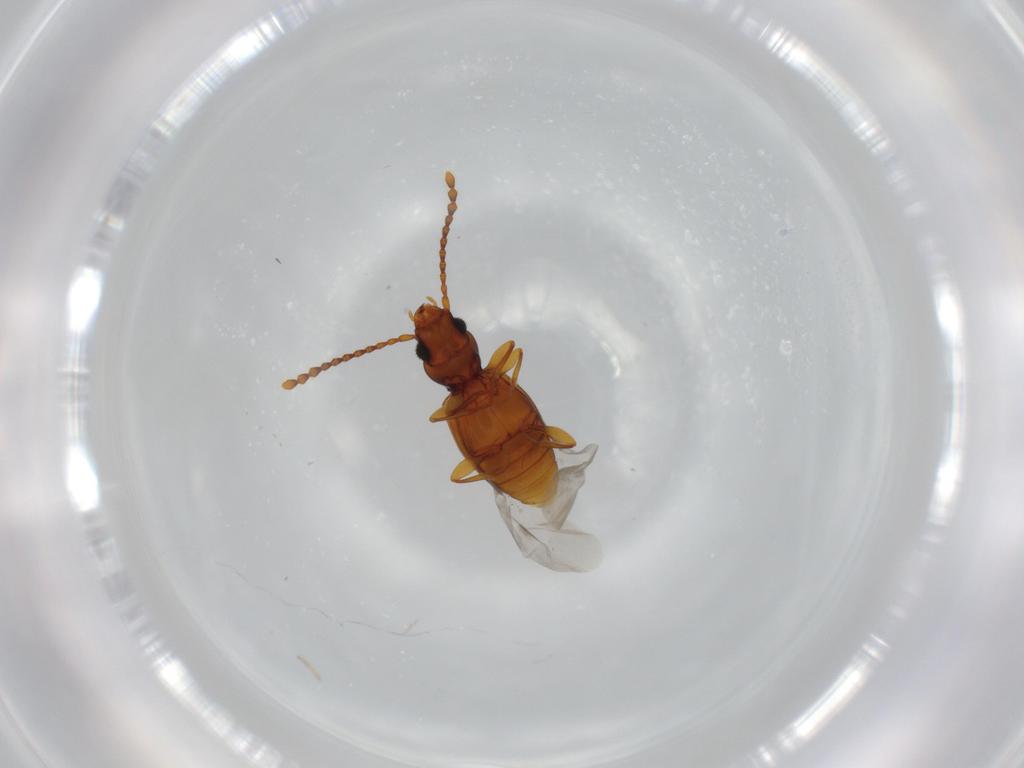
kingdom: Animalia
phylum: Arthropoda
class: Insecta
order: Coleoptera
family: Laemophloeidae
